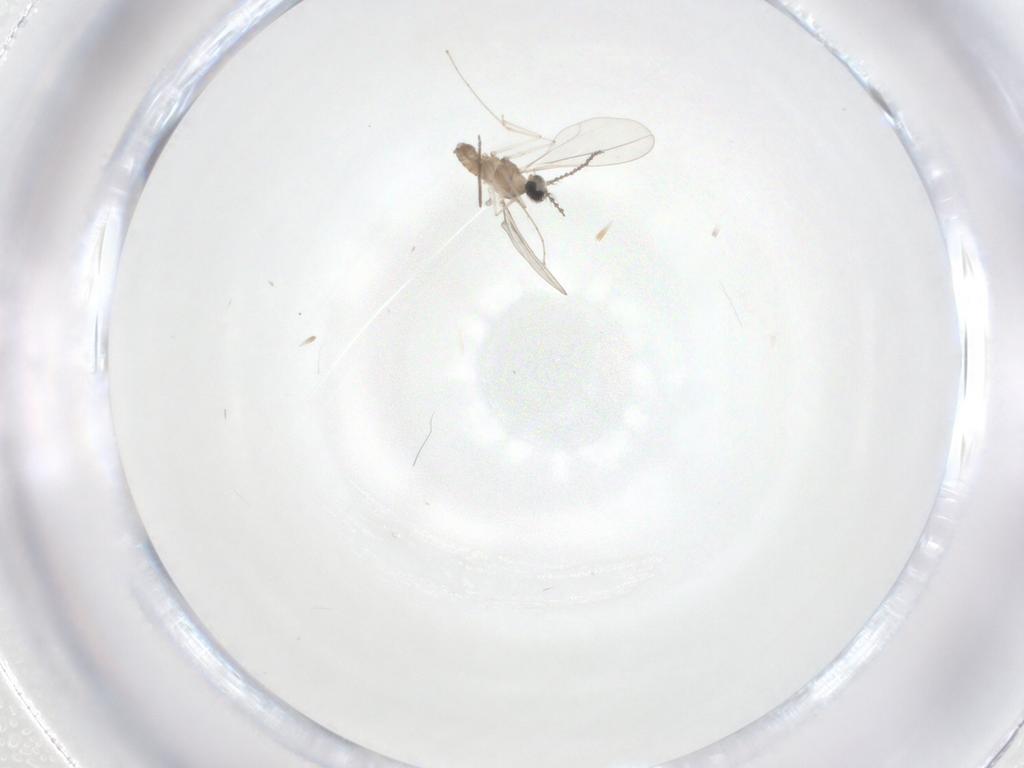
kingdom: Animalia
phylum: Arthropoda
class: Insecta
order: Diptera
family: Cecidomyiidae
